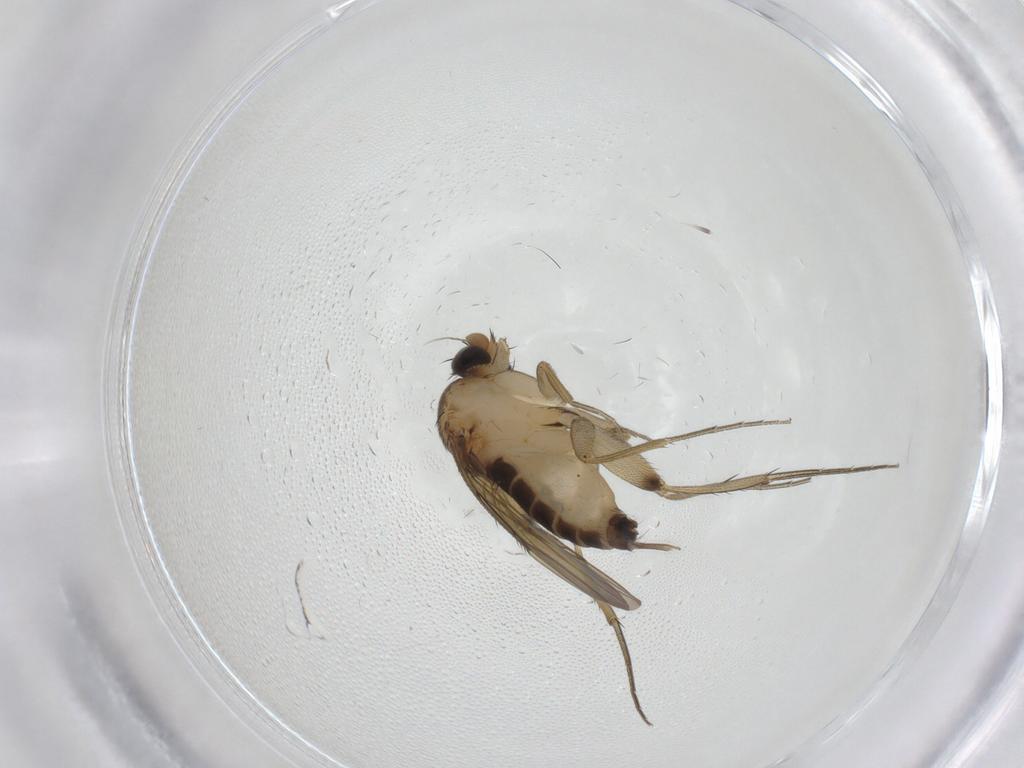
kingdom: Animalia
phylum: Arthropoda
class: Insecta
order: Diptera
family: Phoridae
